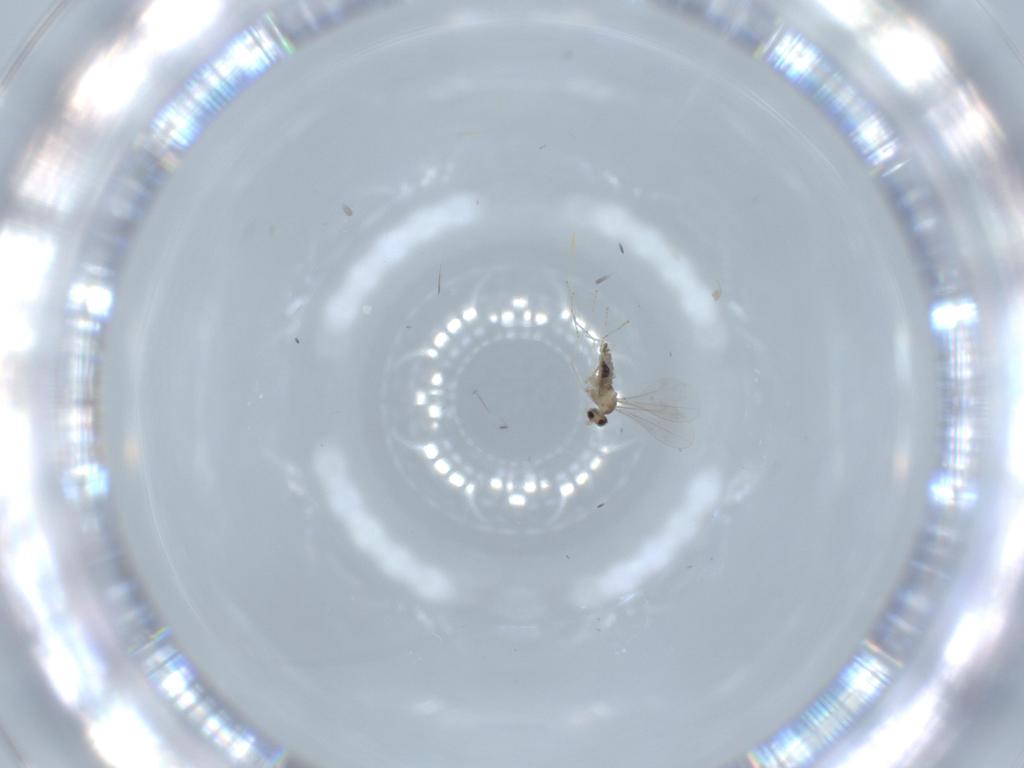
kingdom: Animalia
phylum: Arthropoda
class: Insecta
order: Diptera
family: Cecidomyiidae
